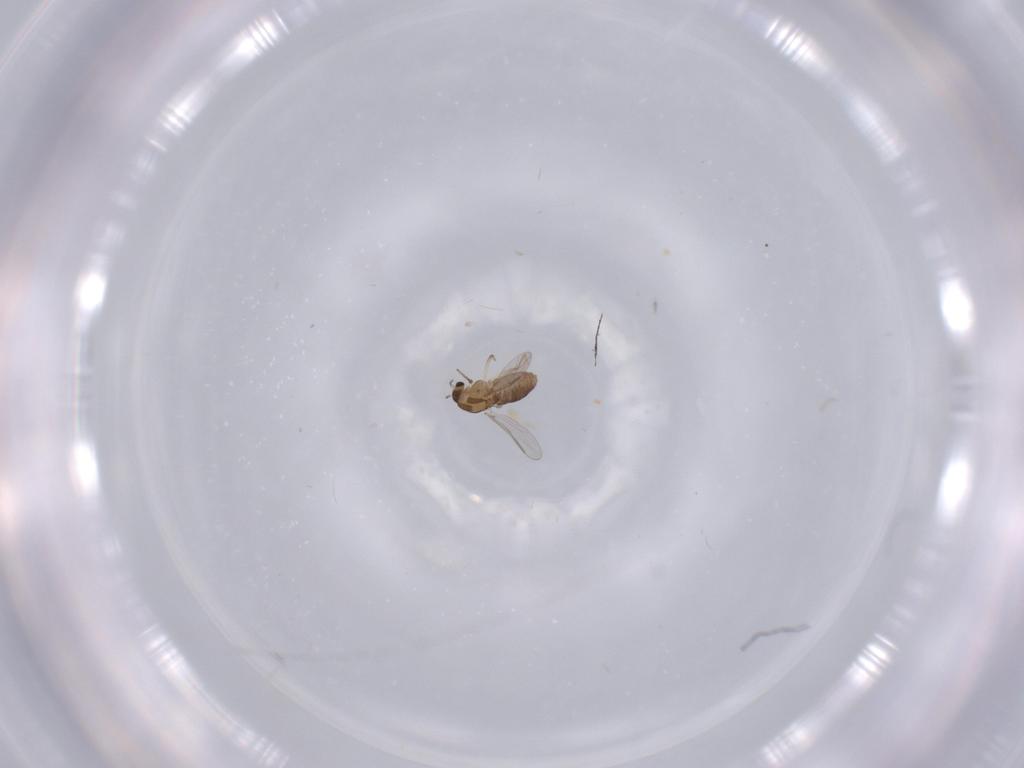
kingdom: Animalia
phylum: Arthropoda
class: Insecta
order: Diptera
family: Chironomidae
